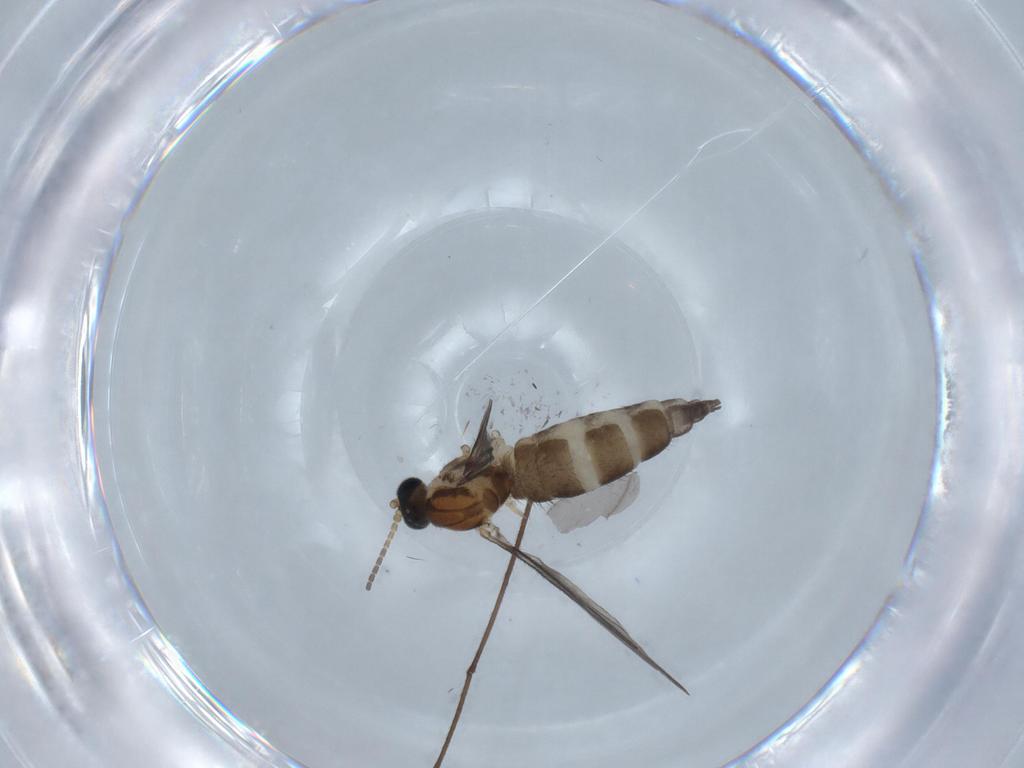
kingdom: Animalia
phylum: Arthropoda
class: Insecta
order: Diptera
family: Sciaridae
